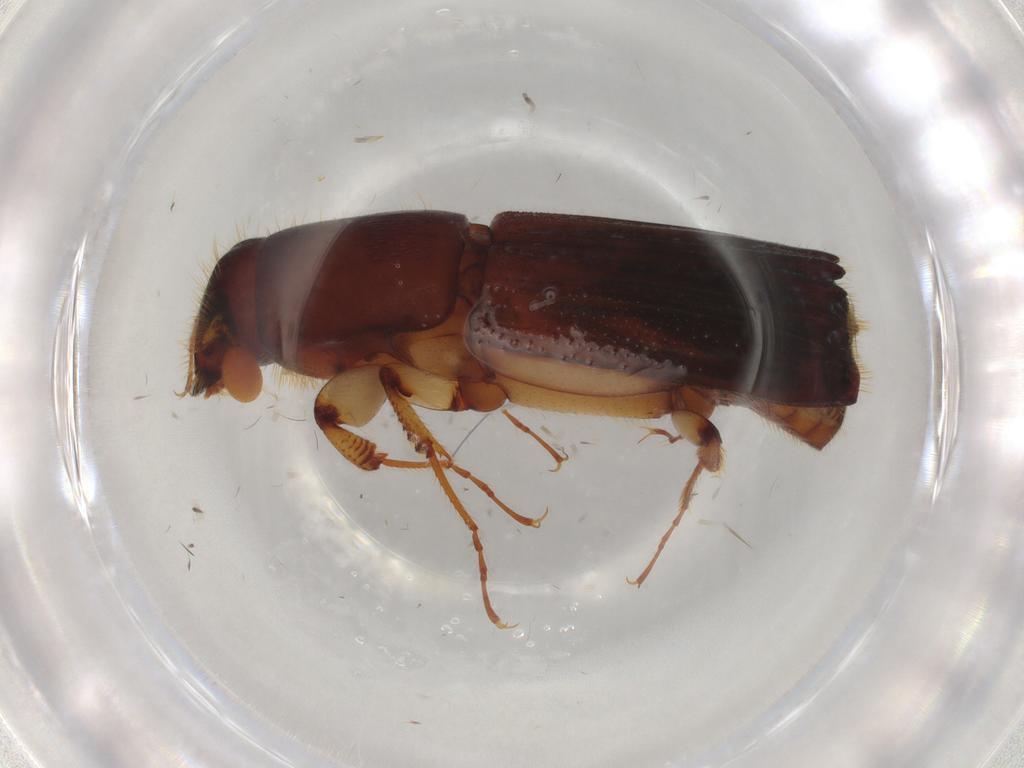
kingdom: Animalia
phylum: Arthropoda
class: Insecta
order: Coleoptera
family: Curculionidae
